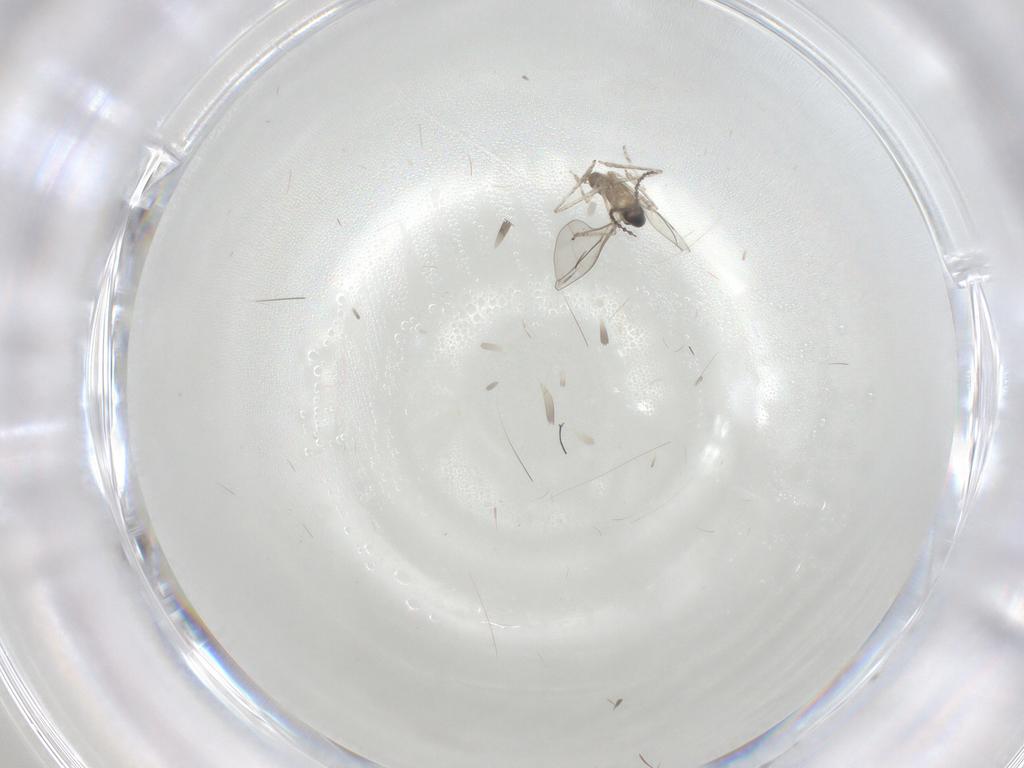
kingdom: Animalia
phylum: Arthropoda
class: Insecta
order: Diptera
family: Cecidomyiidae
